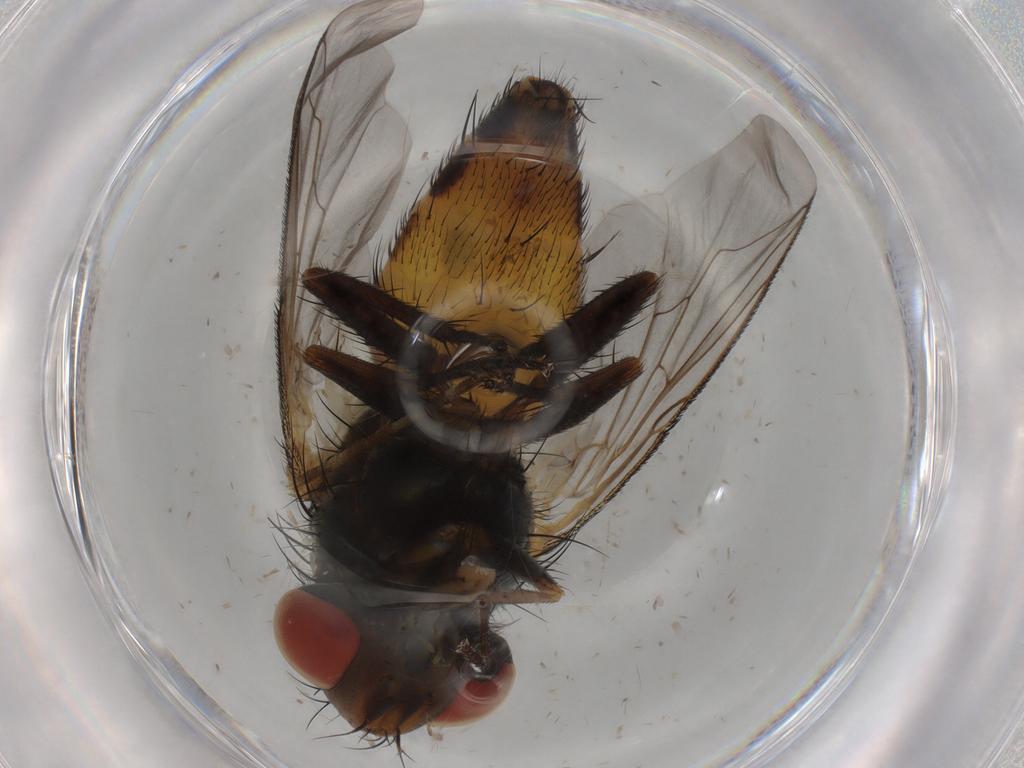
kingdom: Animalia
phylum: Arthropoda
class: Insecta
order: Diptera
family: Sarcophagidae
